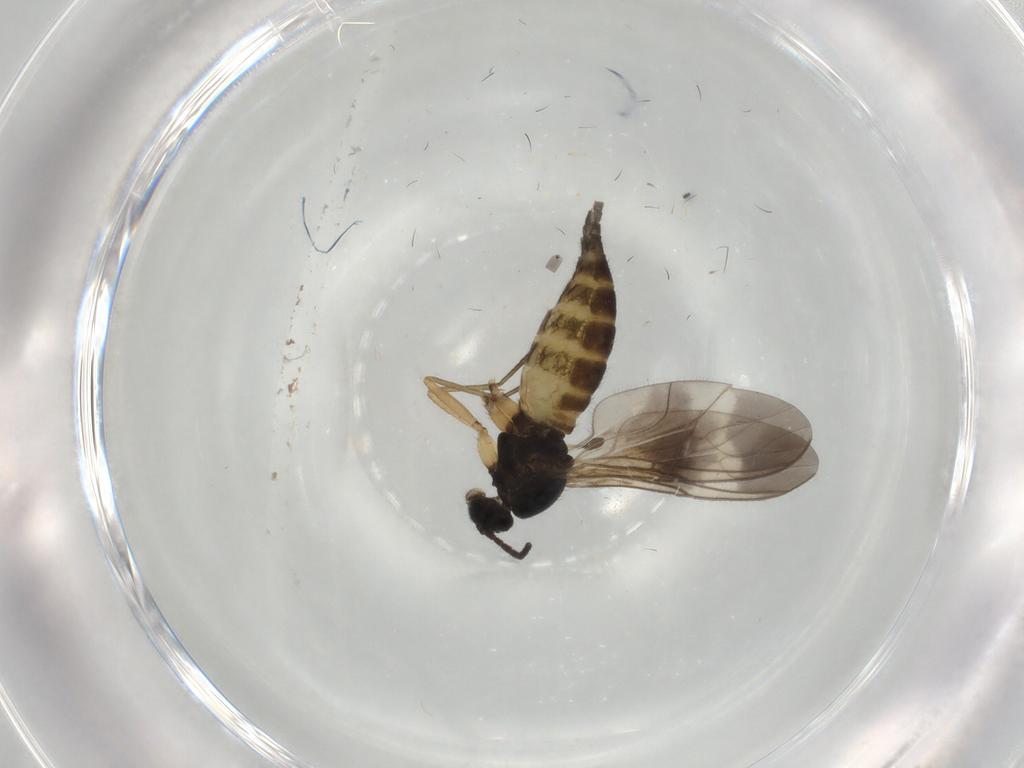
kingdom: Animalia
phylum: Arthropoda
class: Insecta
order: Diptera
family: Sciaridae
